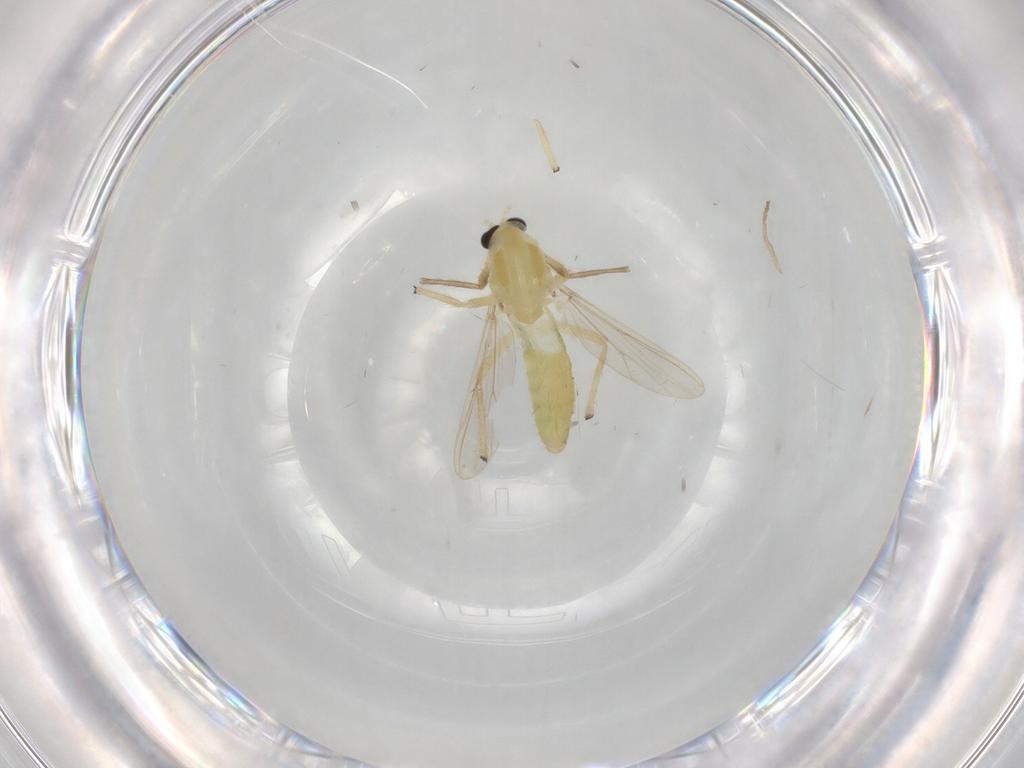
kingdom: Animalia
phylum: Arthropoda
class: Insecta
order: Diptera
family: Chironomidae
